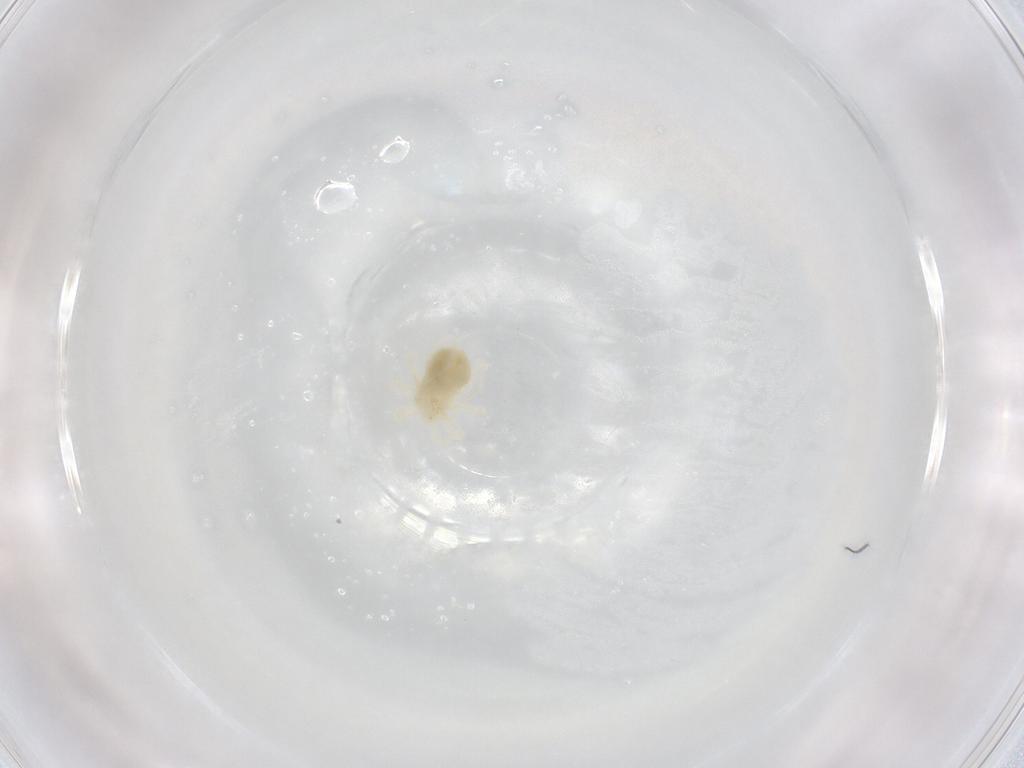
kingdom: Animalia
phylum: Arthropoda
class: Arachnida
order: Trombidiformes
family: Anystidae
